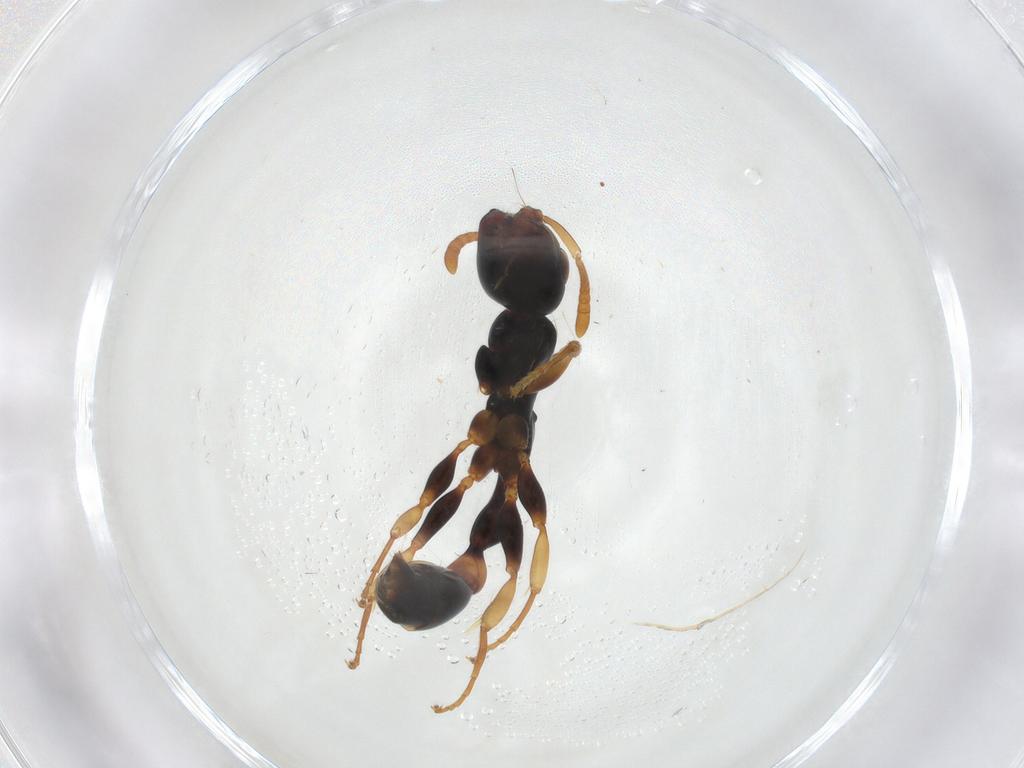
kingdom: Animalia
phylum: Arthropoda
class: Insecta
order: Hymenoptera
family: Formicidae
